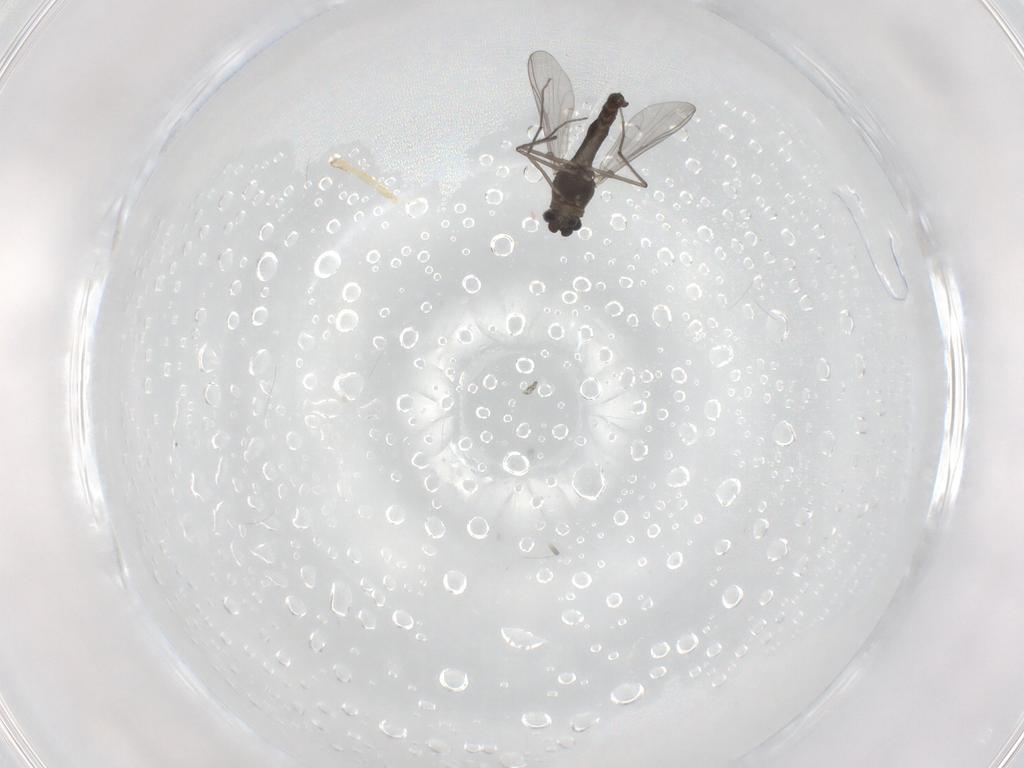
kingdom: Animalia
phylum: Arthropoda
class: Insecta
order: Diptera
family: Chironomidae
